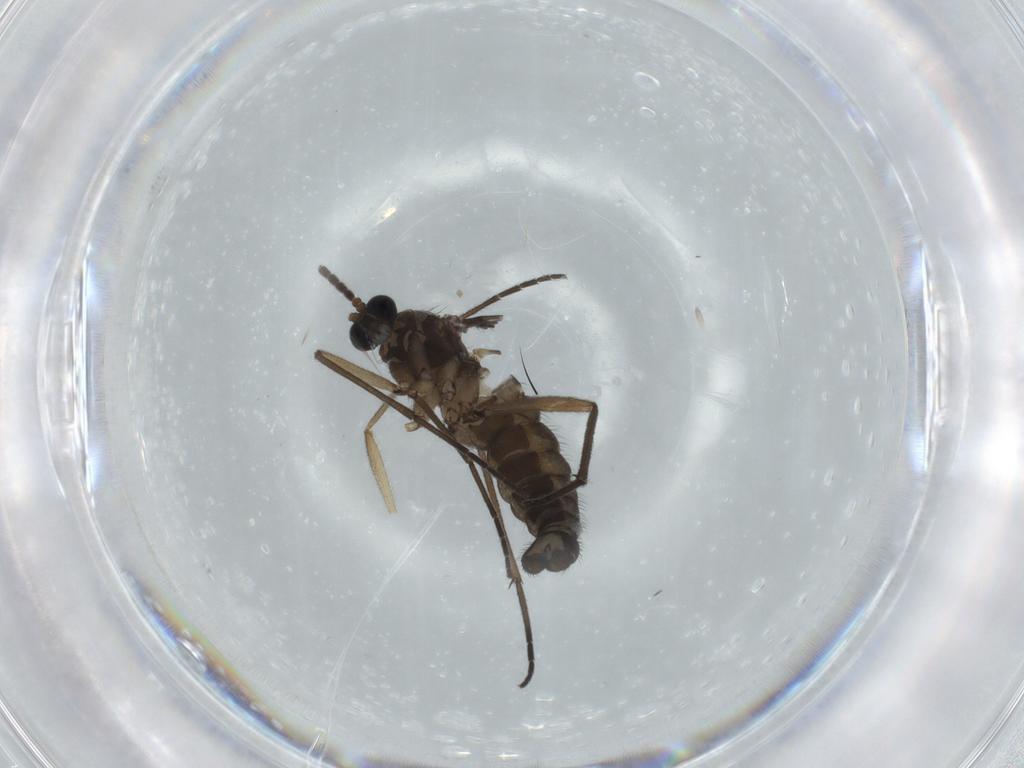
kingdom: Animalia
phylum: Arthropoda
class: Insecta
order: Diptera
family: Sciaridae
